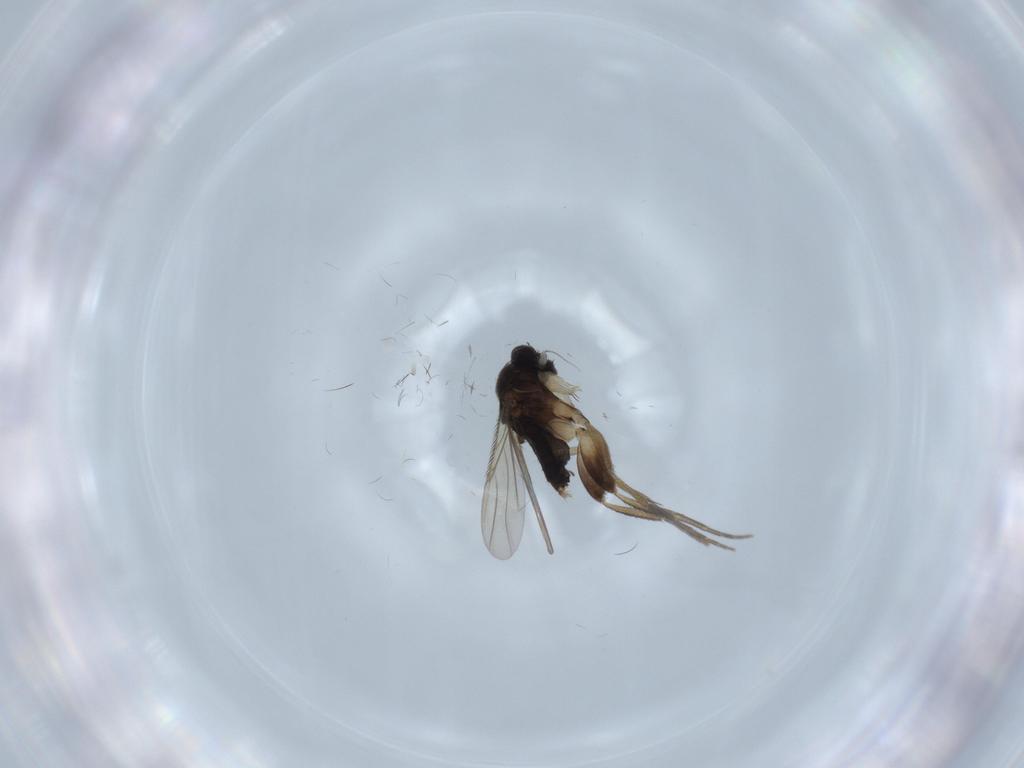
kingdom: Animalia
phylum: Arthropoda
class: Insecta
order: Diptera
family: Phoridae
